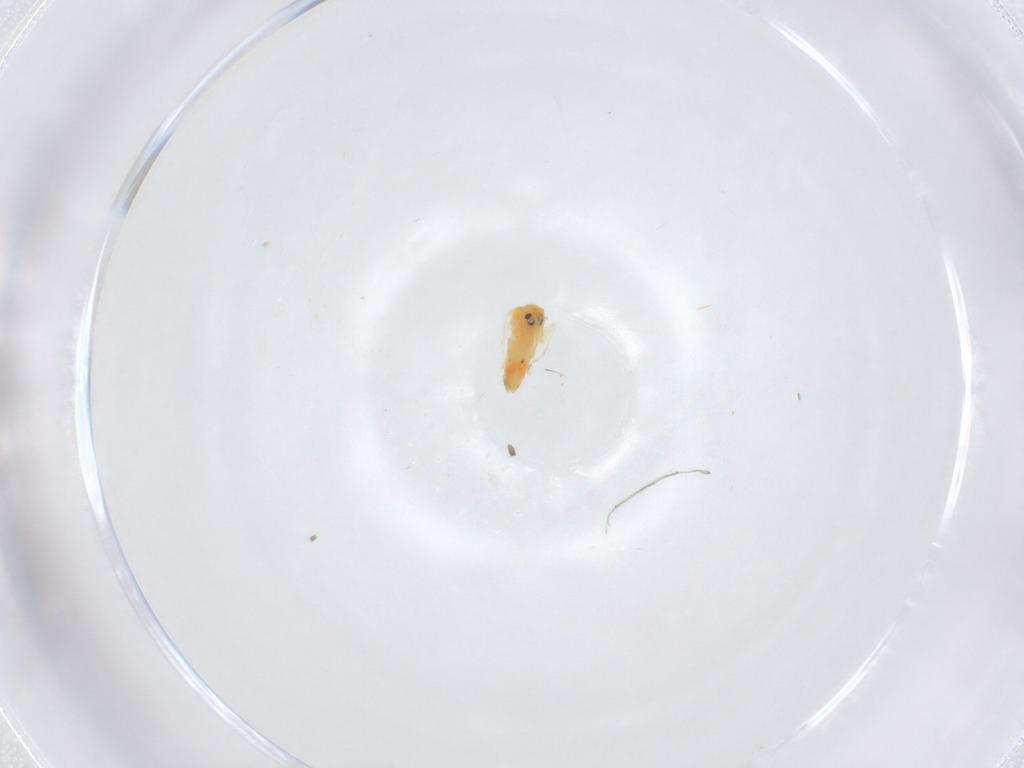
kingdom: Animalia
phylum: Arthropoda
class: Insecta
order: Hemiptera
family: Aleyrodidae
